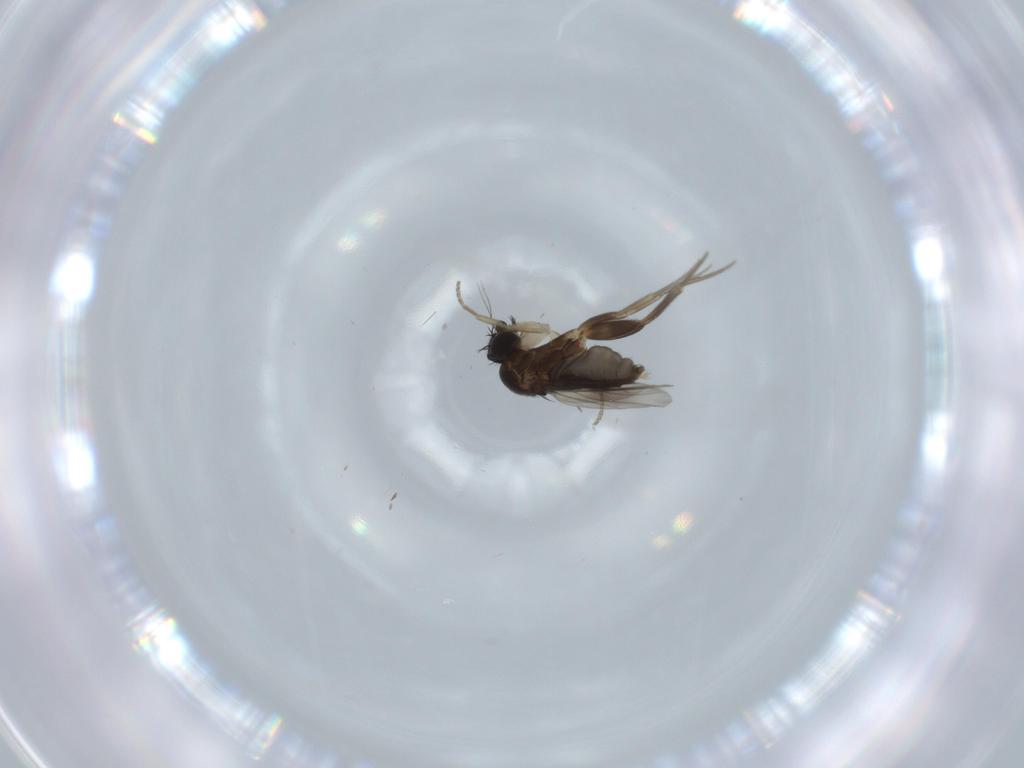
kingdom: Animalia
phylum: Arthropoda
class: Insecta
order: Diptera
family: Phoridae
